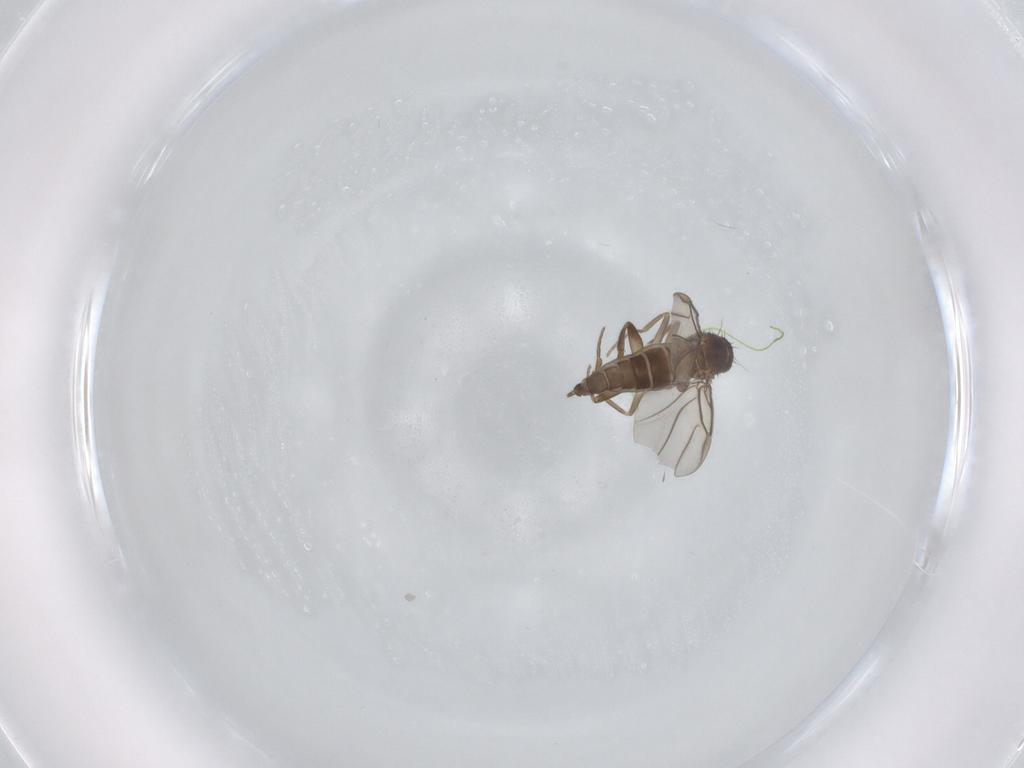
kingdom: Animalia
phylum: Arthropoda
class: Insecta
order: Diptera
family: Phoridae
